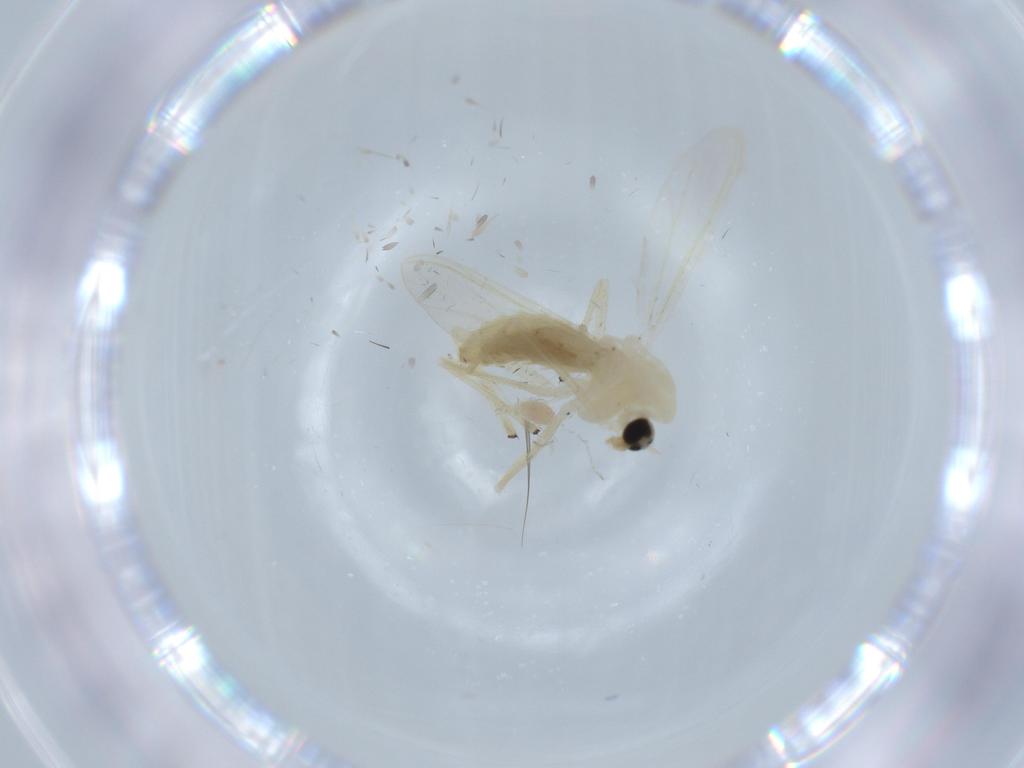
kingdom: Animalia
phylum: Arthropoda
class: Insecta
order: Diptera
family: Chironomidae
